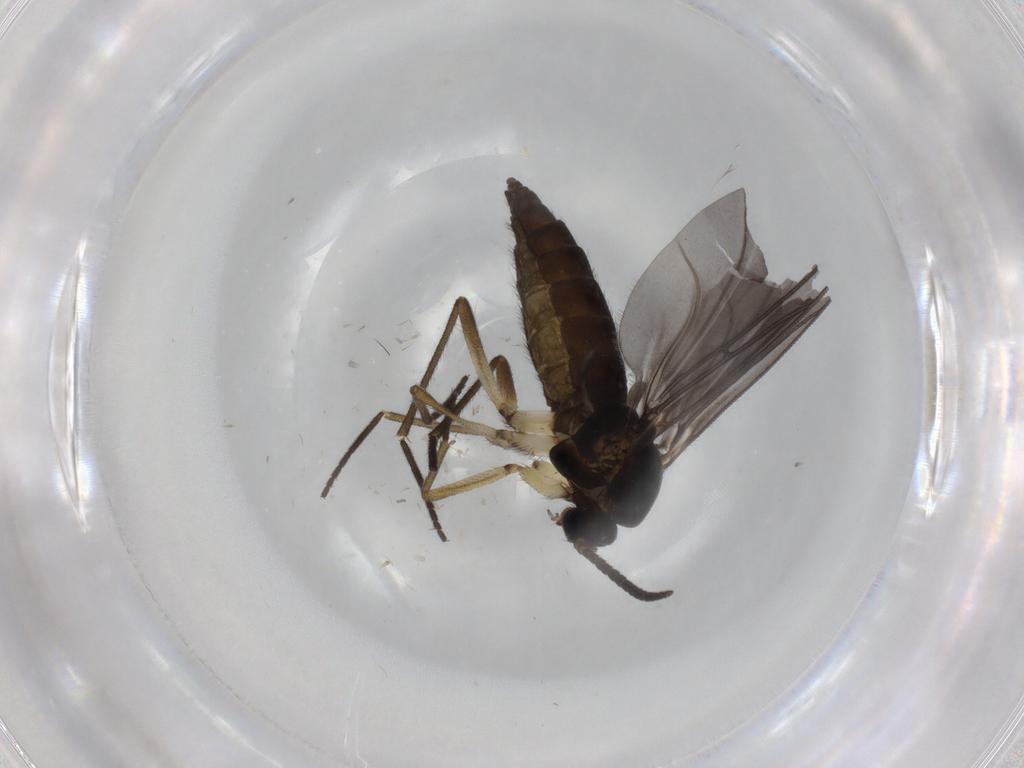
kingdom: Animalia
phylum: Arthropoda
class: Insecta
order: Diptera
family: Sciaridae
